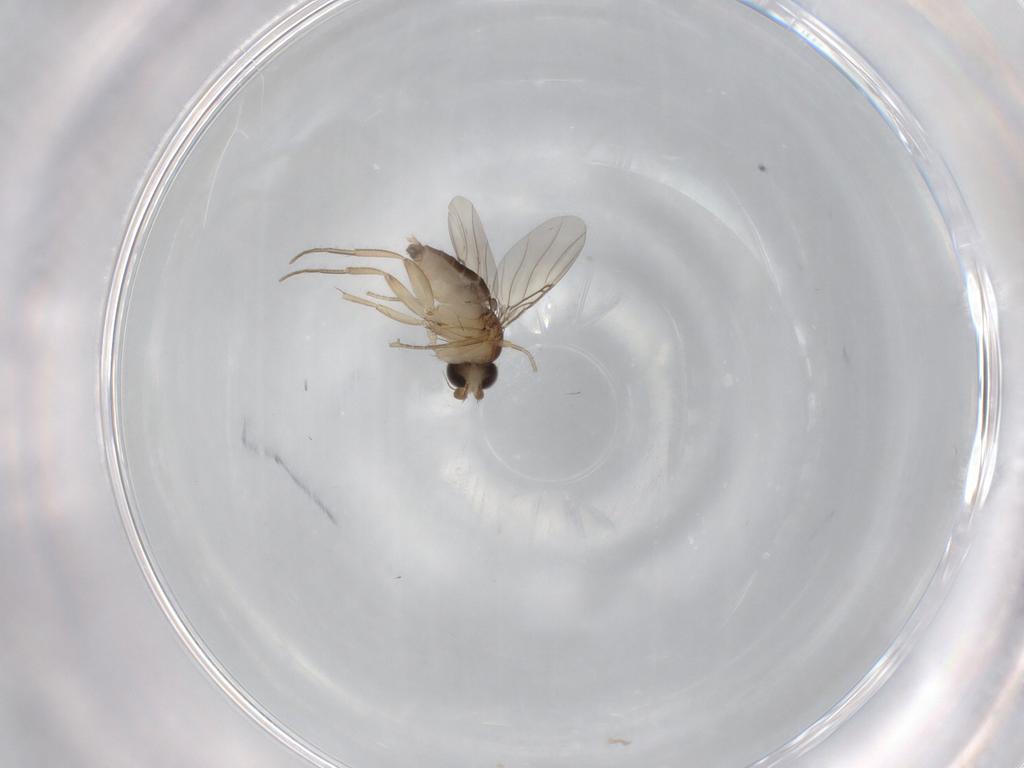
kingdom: Animalia
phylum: Arthropoda
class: Insecta
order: Diptera
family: Phoridae
